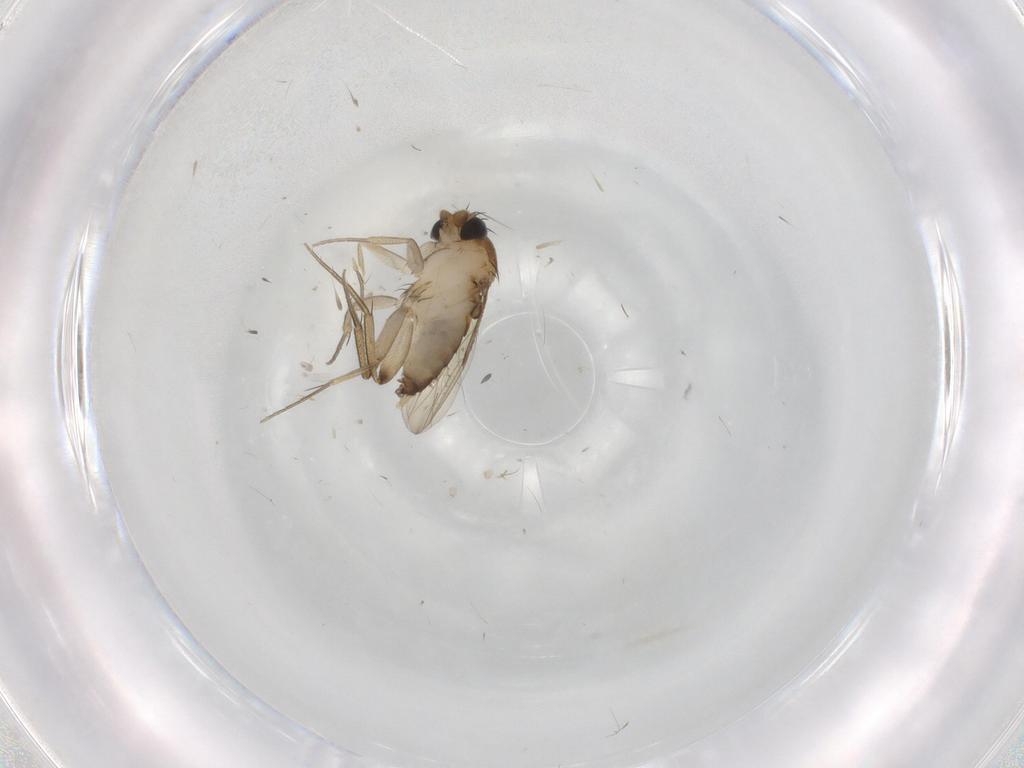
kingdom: Animalia
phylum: Arthropoda
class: Insecta
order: Diptera
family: Phoridae
